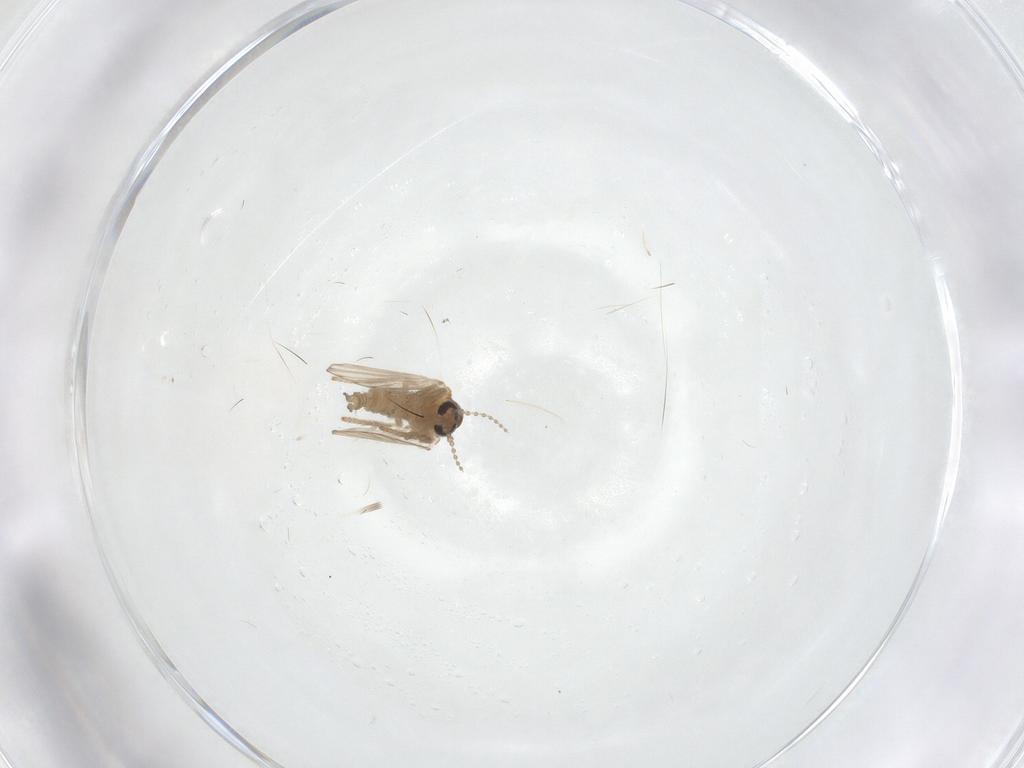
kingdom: Animalia
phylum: Arthropoda
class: Insecta
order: Diptera
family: Psychodidae
